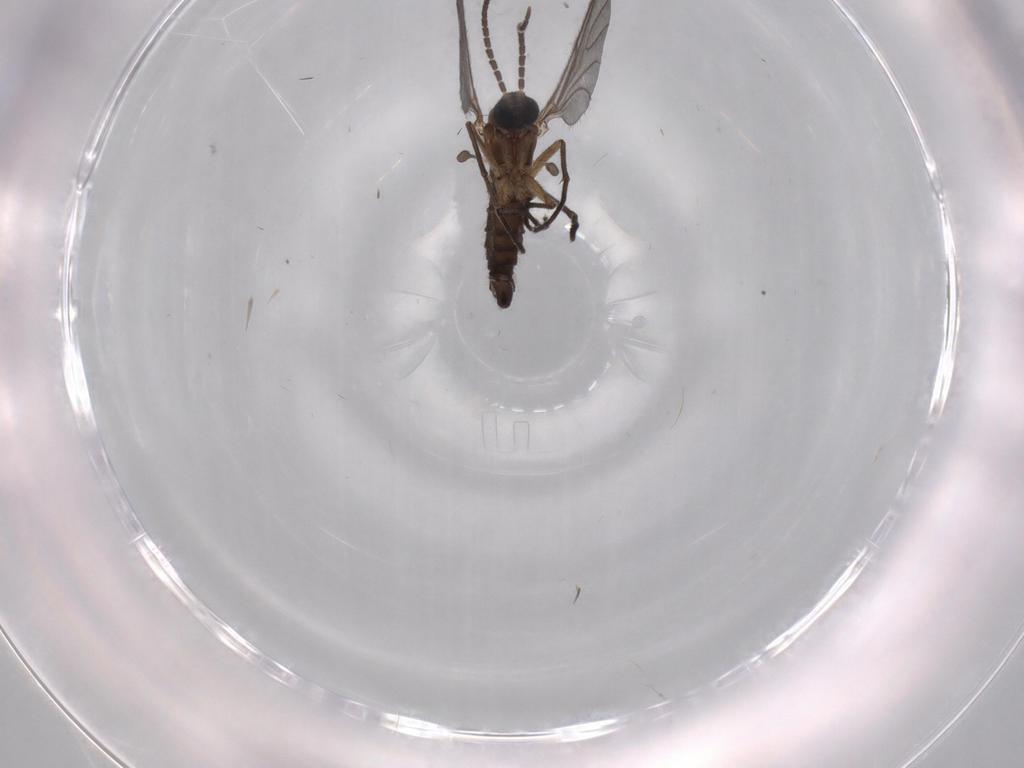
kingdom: Animalia
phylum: Arthropoda
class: Insecta
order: Diptera
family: Sciaridae
